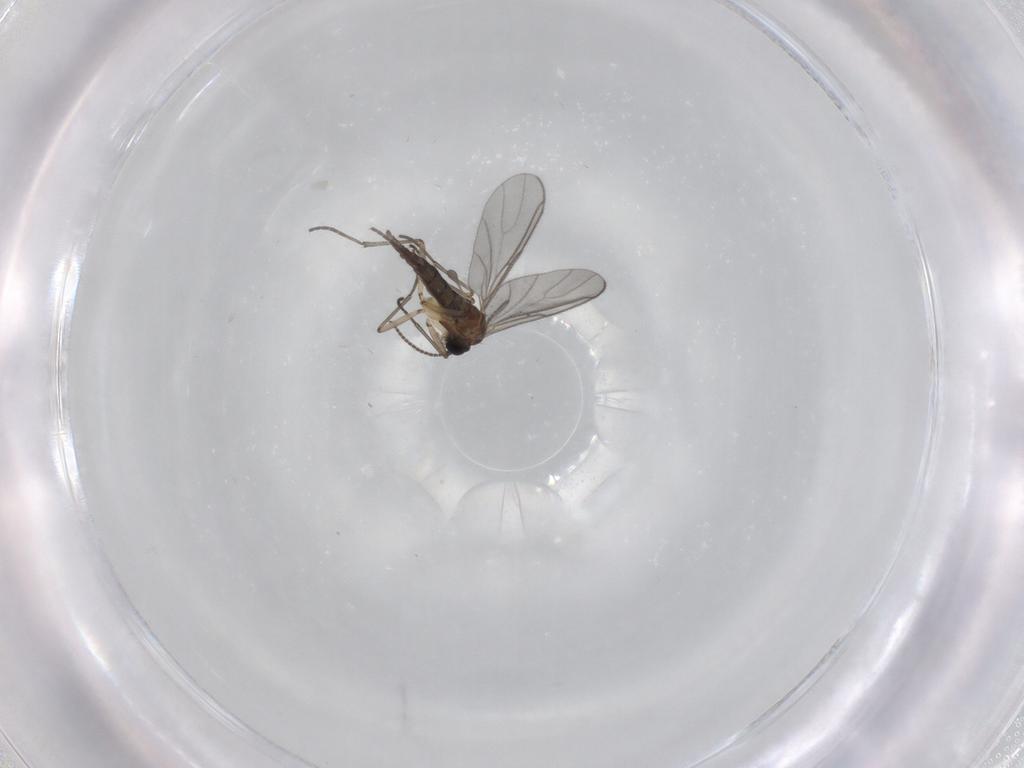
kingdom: Animalia
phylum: Arthropoda
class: Insecta
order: Diptera
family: Sciaridae
